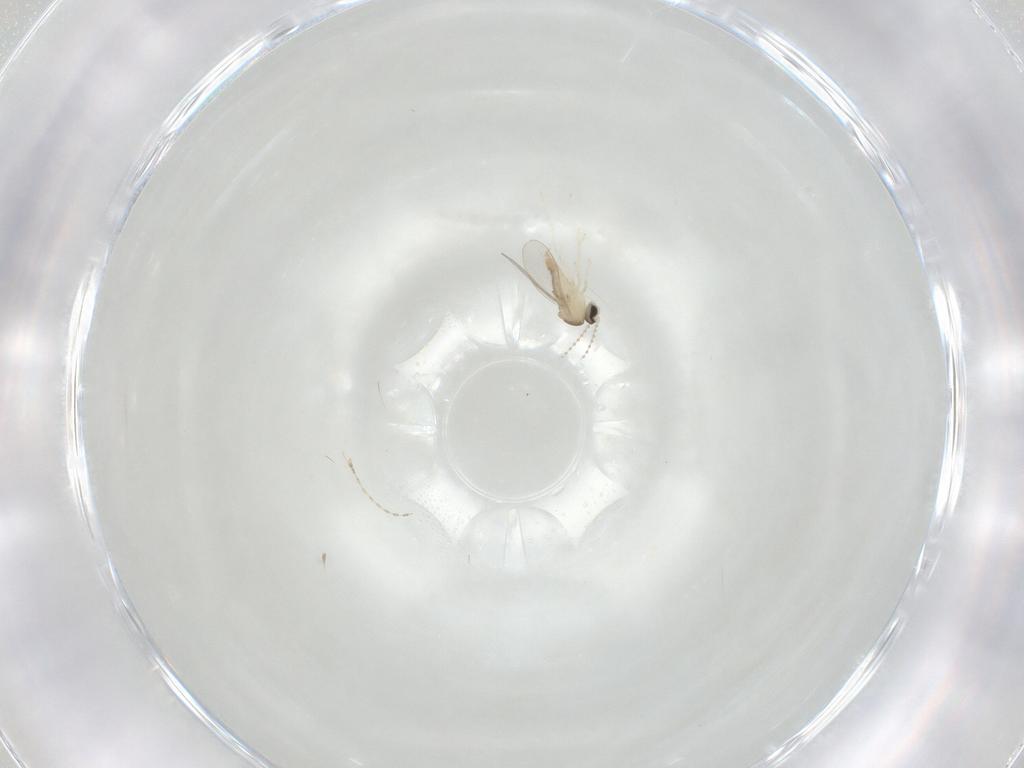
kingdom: Animalia
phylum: Arthropoda
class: Insecta
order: Diptera
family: Cecidomyiidae
